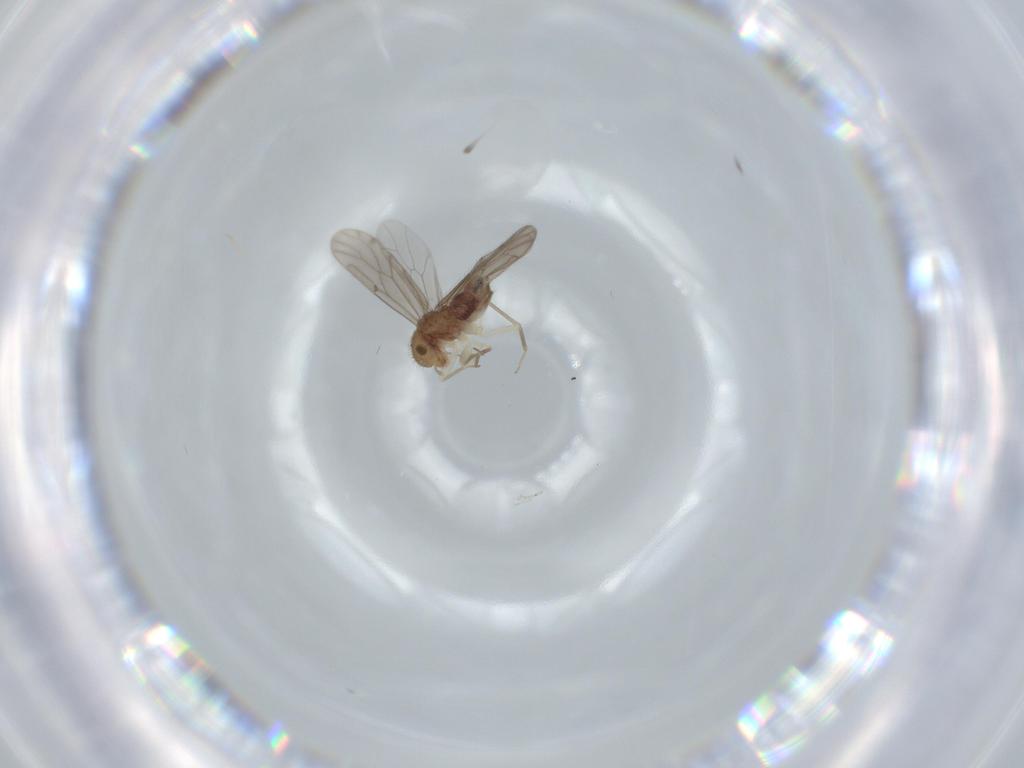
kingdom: Animalia
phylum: Arthropoda
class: Insecta
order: Psocodea
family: Ectopsocidae
